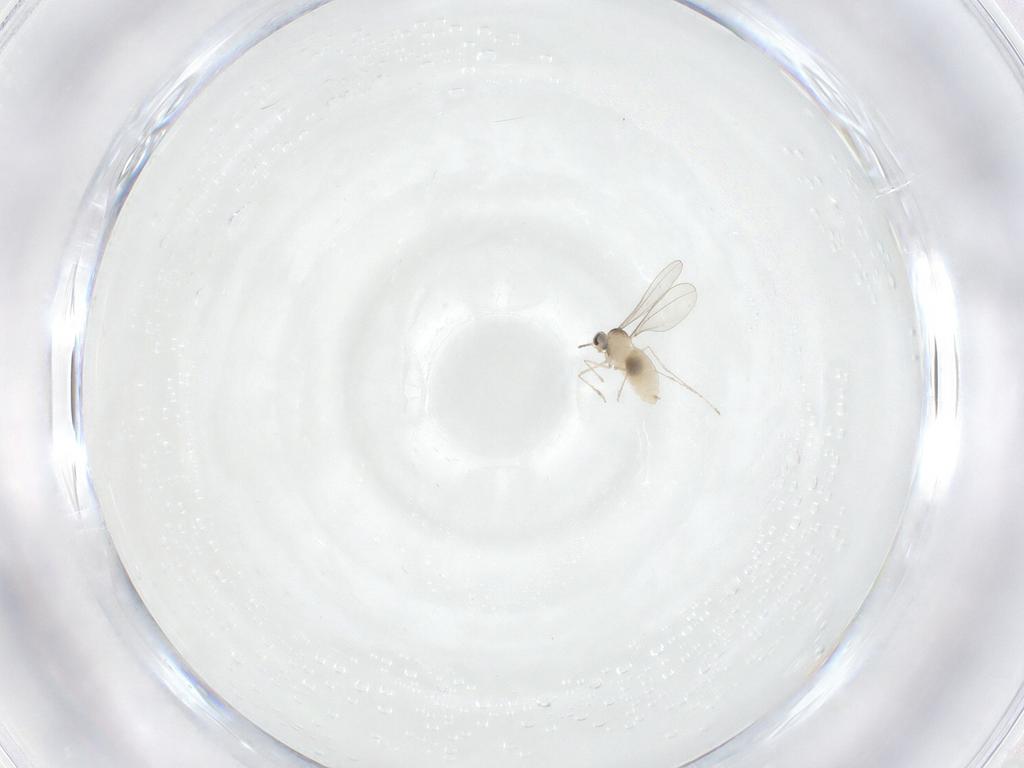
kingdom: Animalia
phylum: Arthropoda
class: Insecta
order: Diptera
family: Cecidomyiidae
